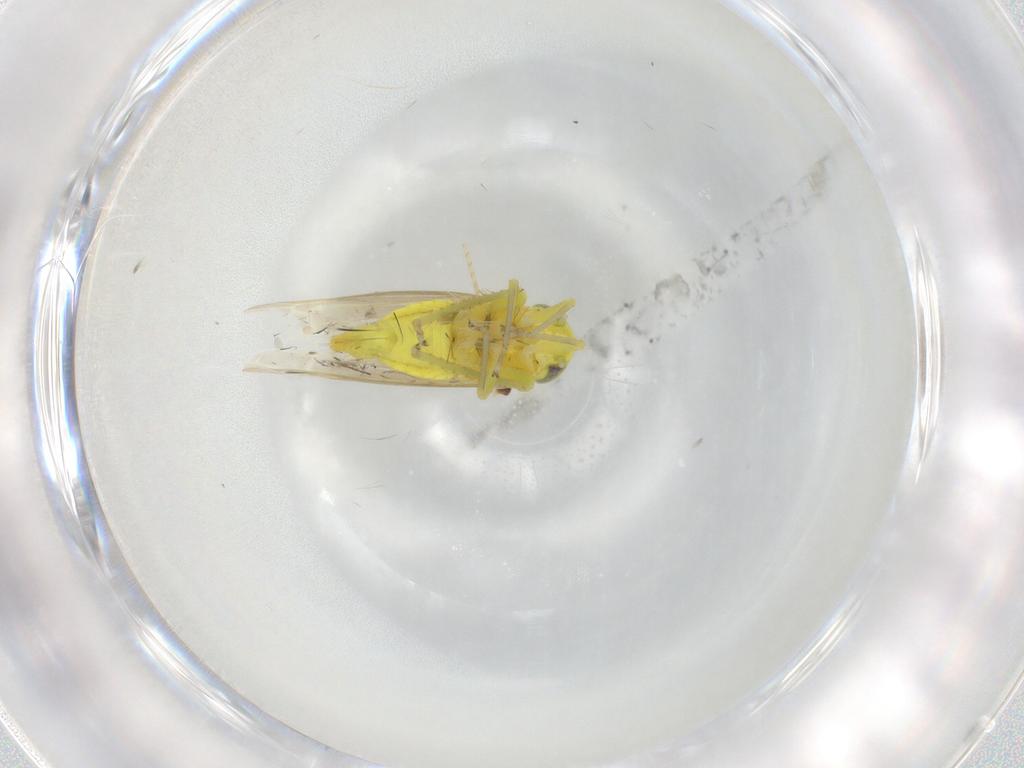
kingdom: Animalia
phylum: Arthropoda
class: Insecta
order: Hemiptera
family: Cicadellidae
